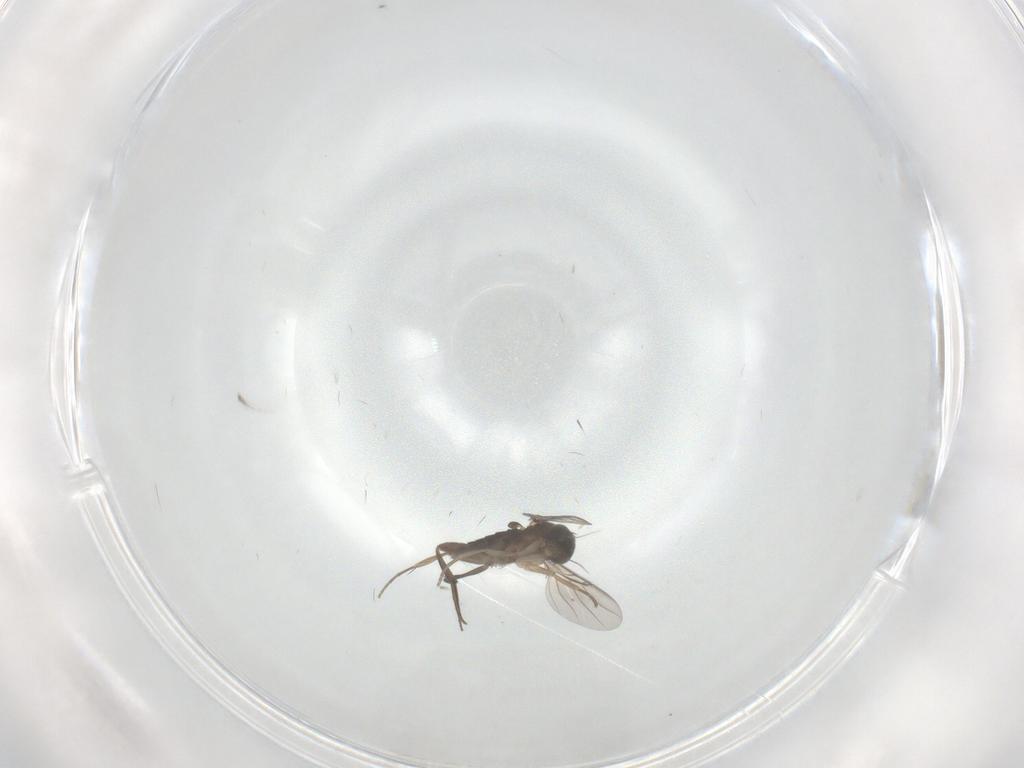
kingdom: Animalia
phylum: Arthropoda
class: Insecta
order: Diptera
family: Phoridae
